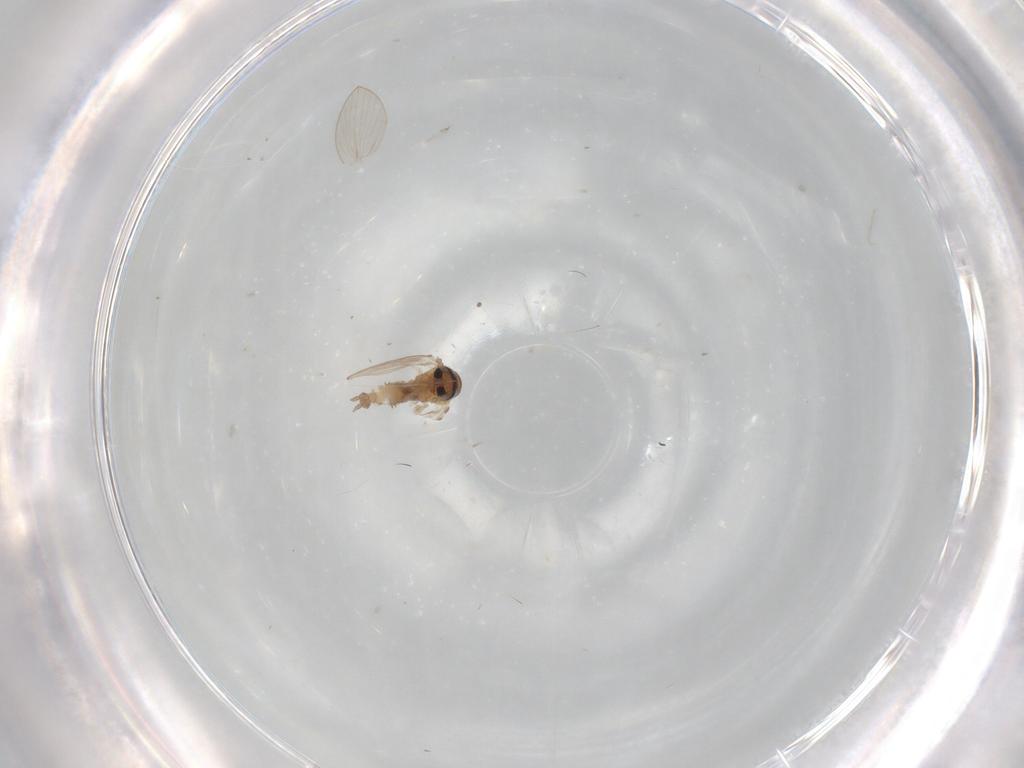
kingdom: Animalia
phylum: Arthropoda
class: Insecta
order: Diptera
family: Psychodidae
